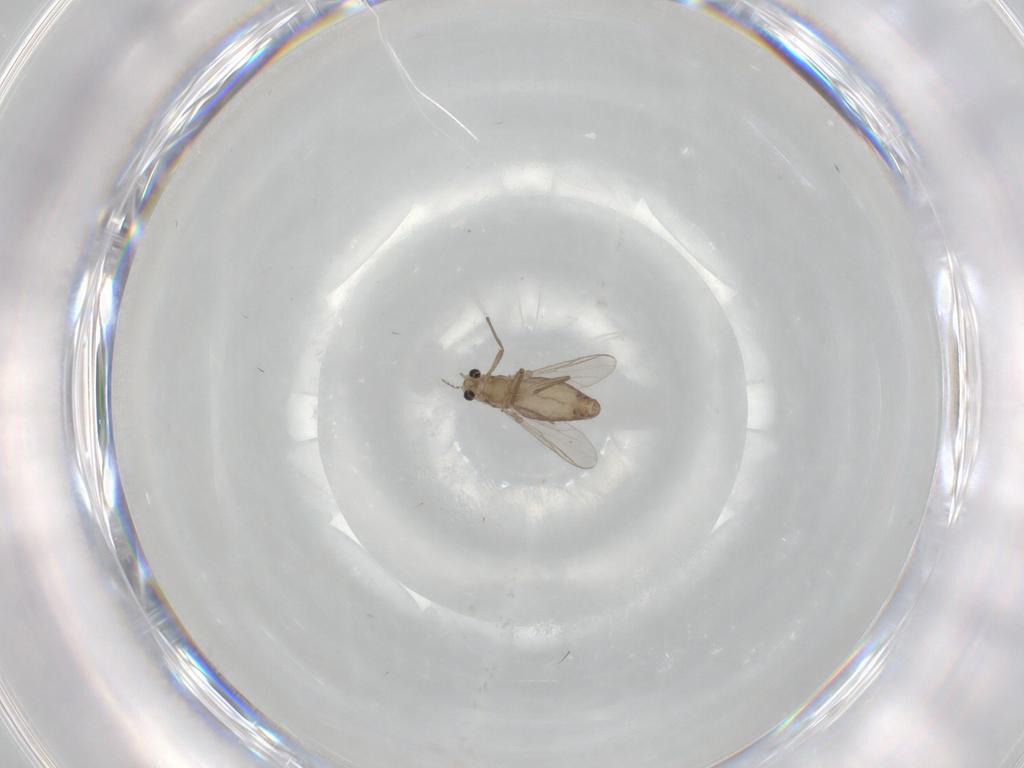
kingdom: Animalia
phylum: Arthropoda
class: Insecta
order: Diptera
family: Chironomidae
